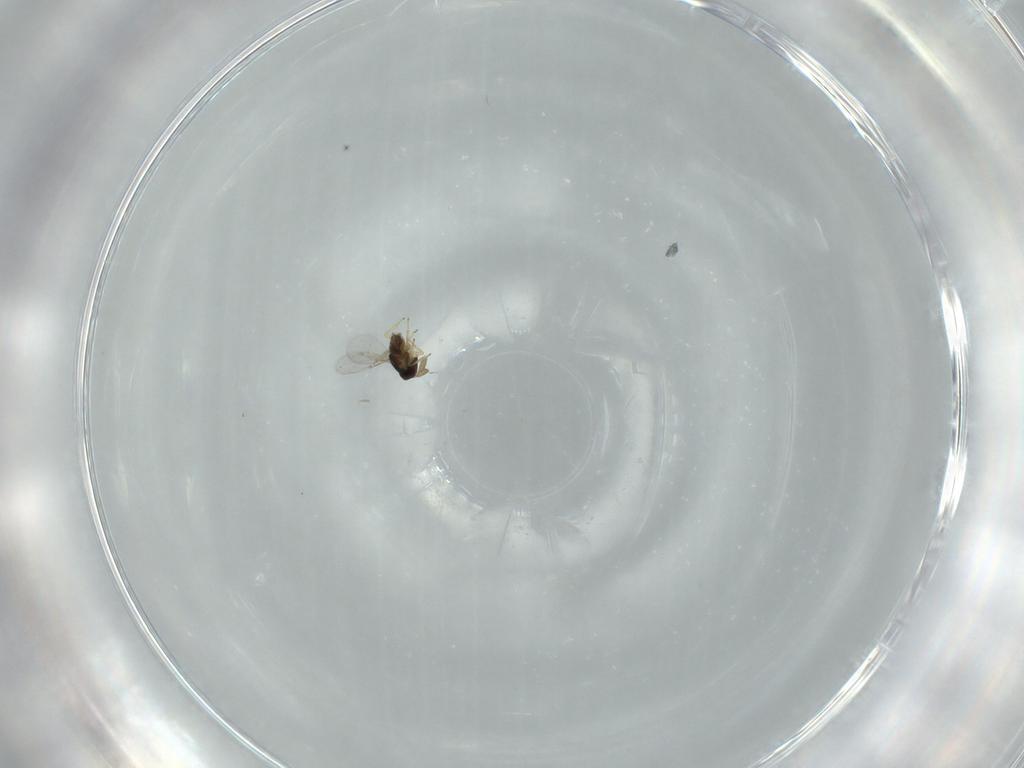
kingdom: Animalia
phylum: Arthropoda
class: Insecta
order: Hymenoptera
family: Encyrtidae
